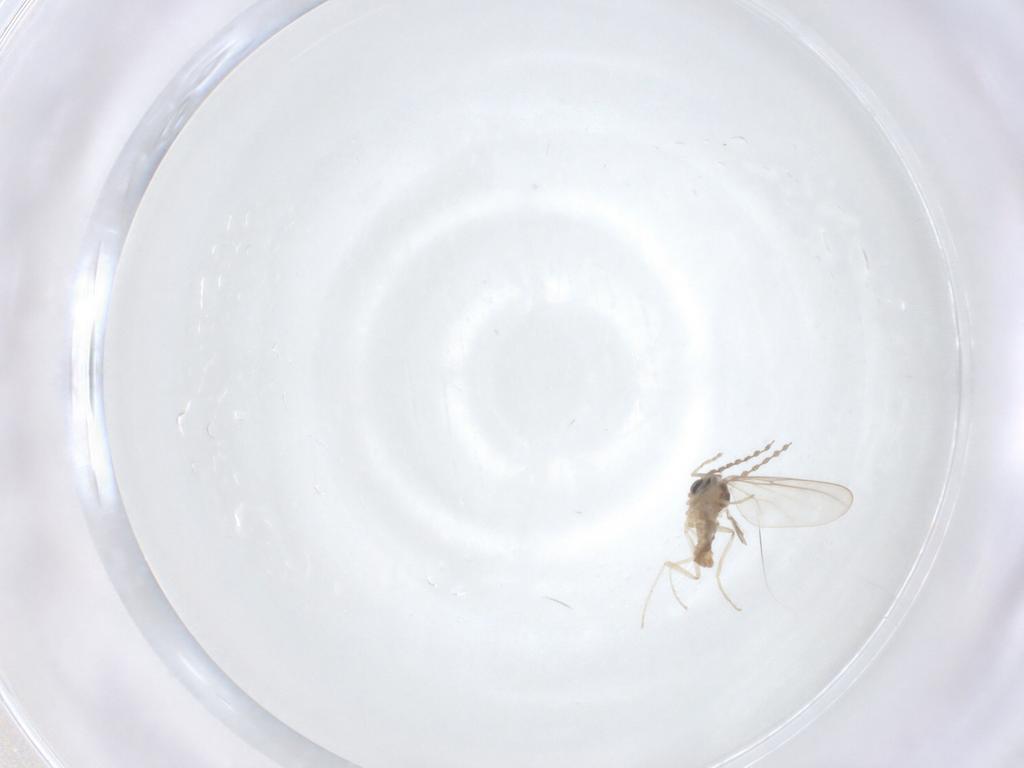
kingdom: Animalia
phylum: Arthropoda
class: Insecta
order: Diptera
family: Cecidomyiidae
